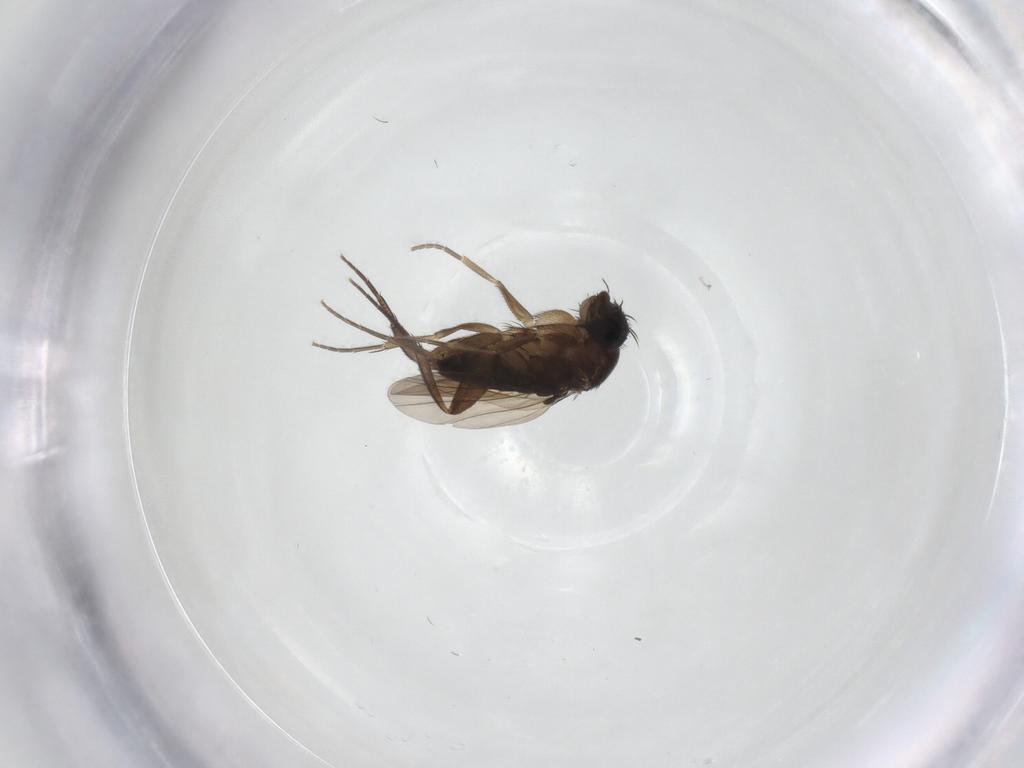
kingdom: Animalia
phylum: Arthropoda
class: Insecta
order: Diptera
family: Phoridae
